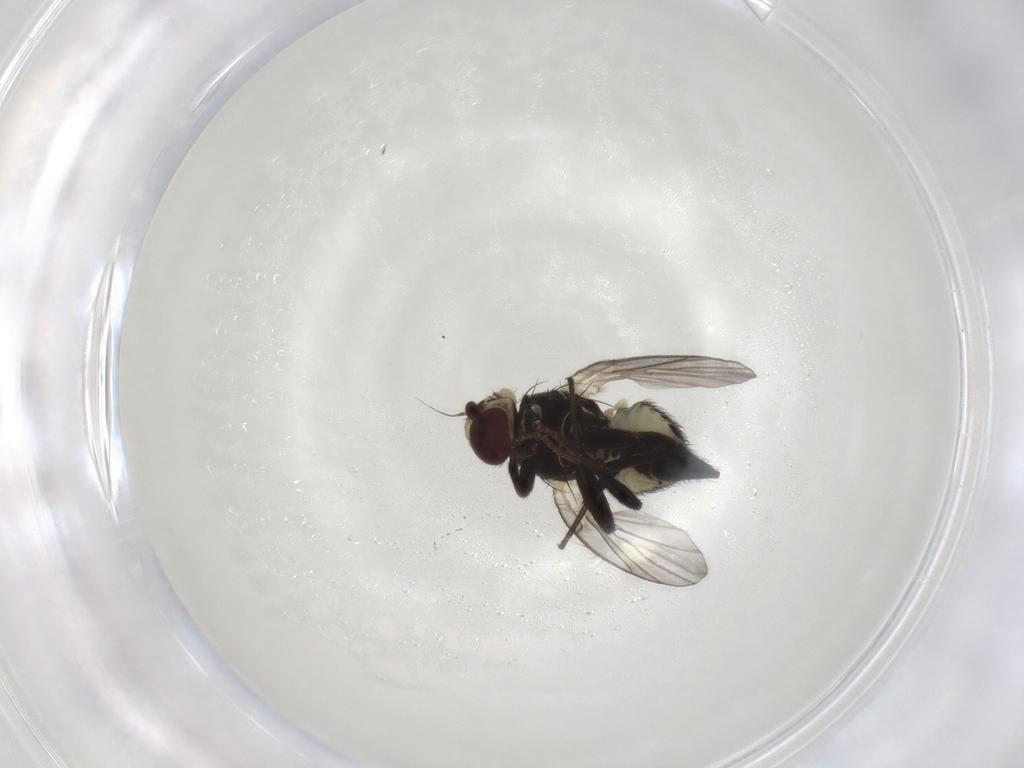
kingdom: Animalia
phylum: Arthropoda
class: Insecta
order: Diptera
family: Agromyzidae
